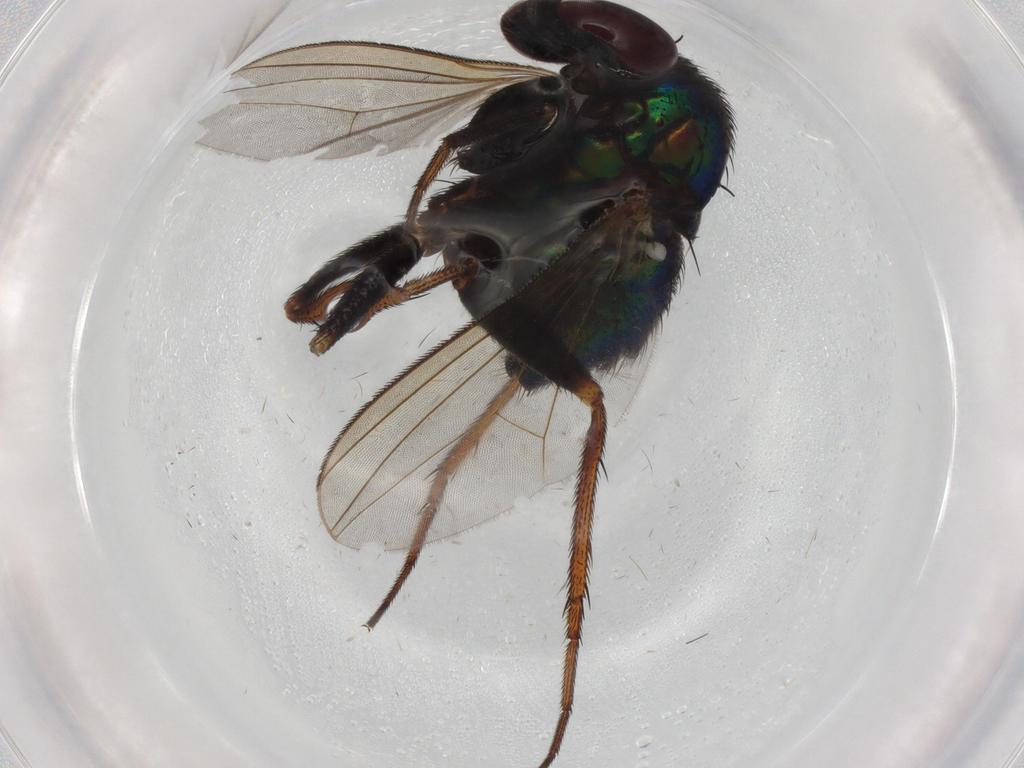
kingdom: Animalia
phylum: Arthropoda
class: Insecta
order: Diptera
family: Dolichopodidae
